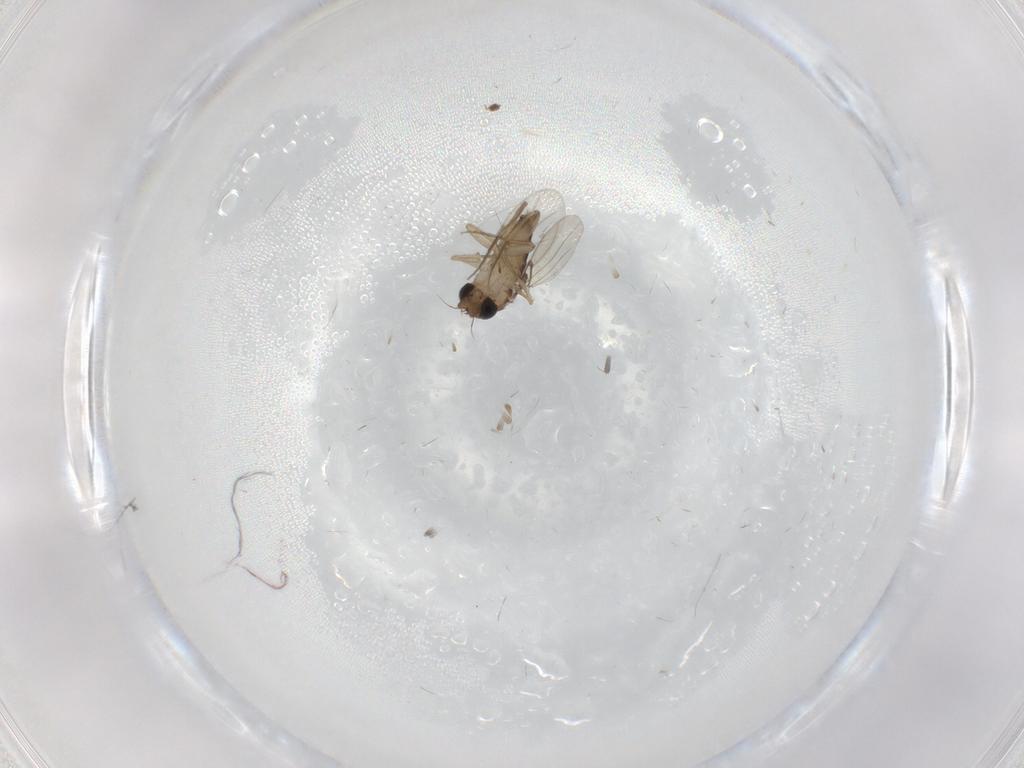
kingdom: Animalia
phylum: Arthropoda
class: Insecta
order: Diptera
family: Phoridae
